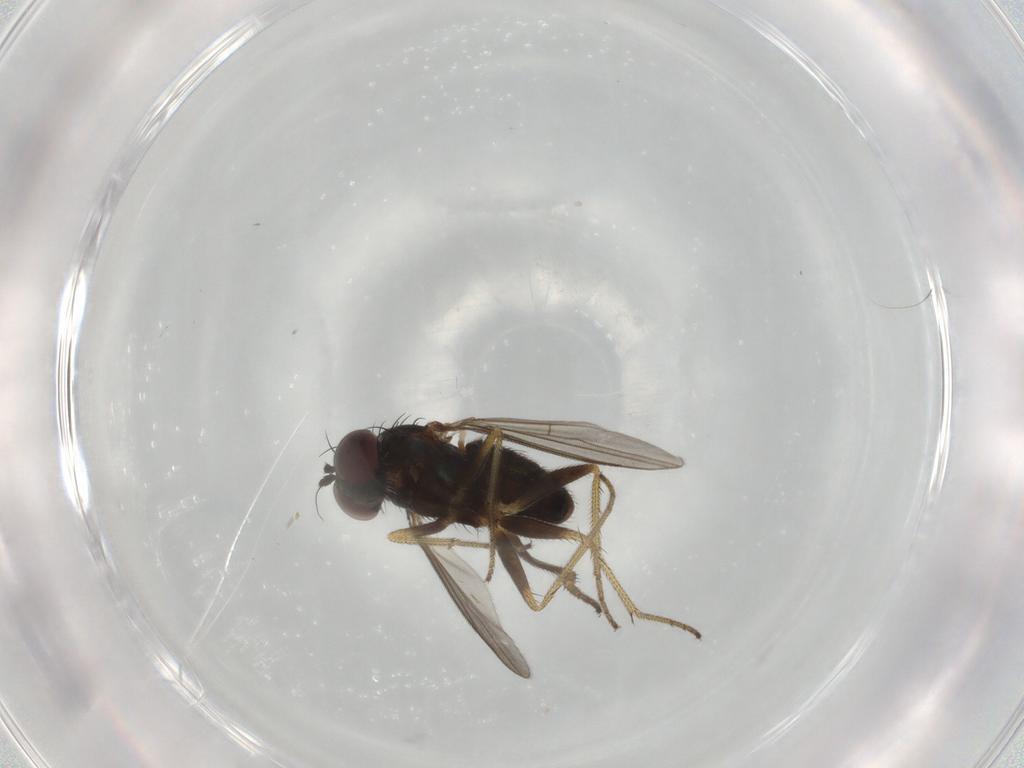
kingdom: Animalia
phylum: Arthropoda
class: Insecta
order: Diptera
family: Dolichopodidae
